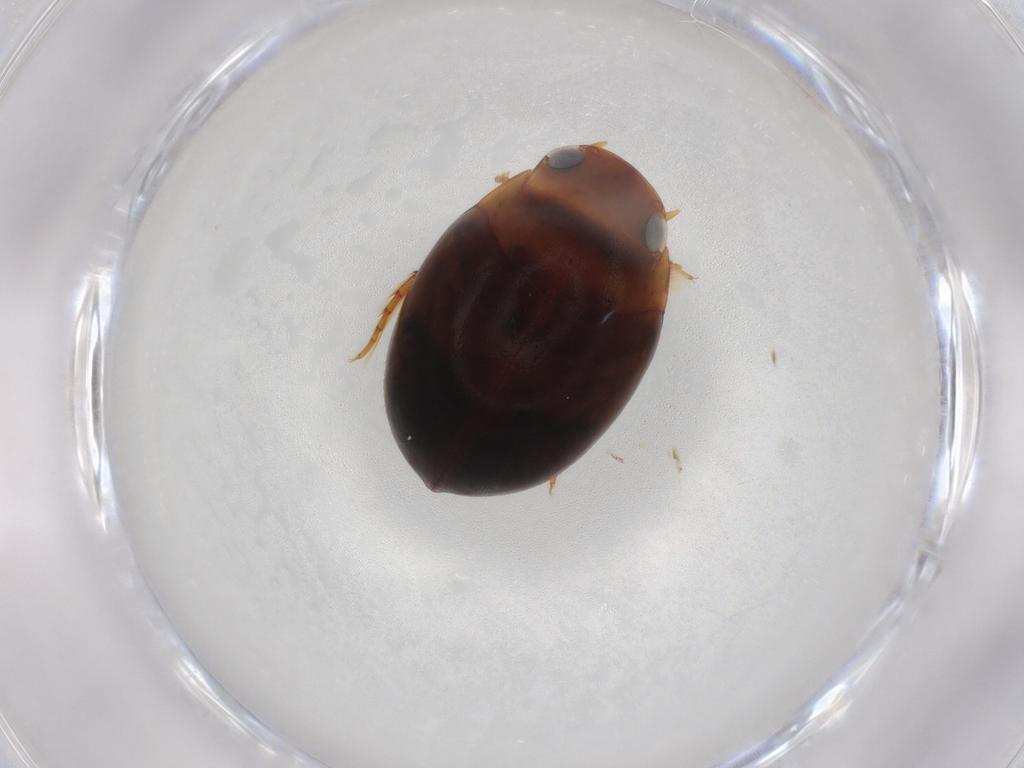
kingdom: Animalia
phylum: Arthropoda
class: Insecta
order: Coleoptera
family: Dytiscidae
